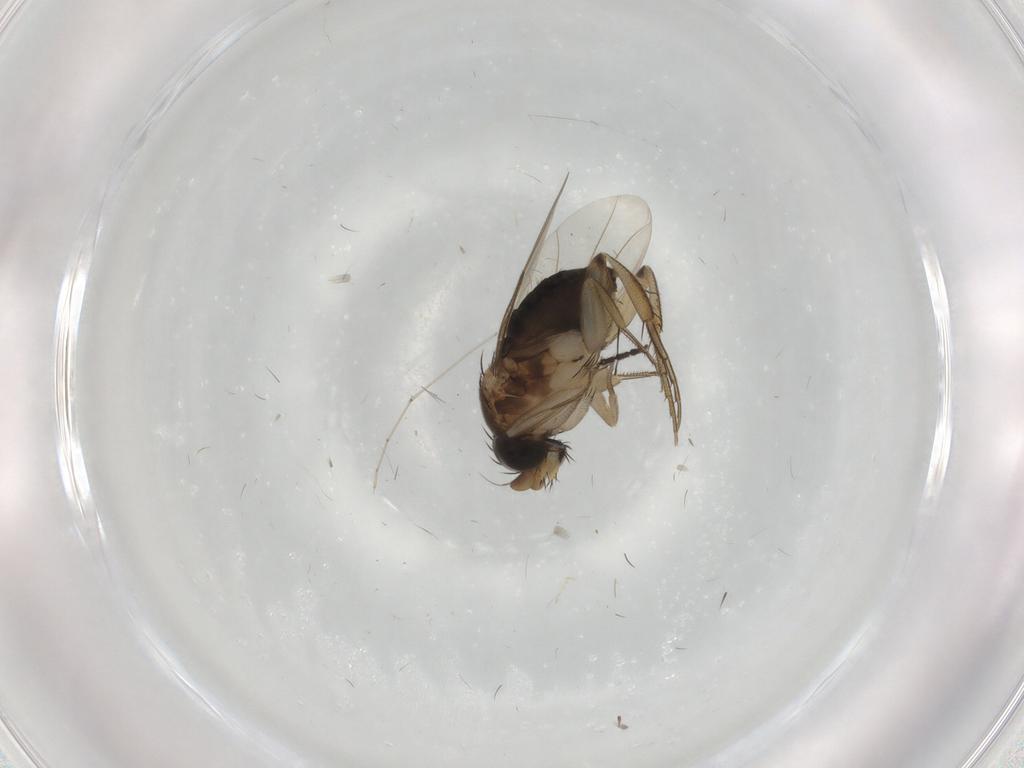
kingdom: Animalia
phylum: Arthropoda
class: Insecta
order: Diptera
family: Phoridae
